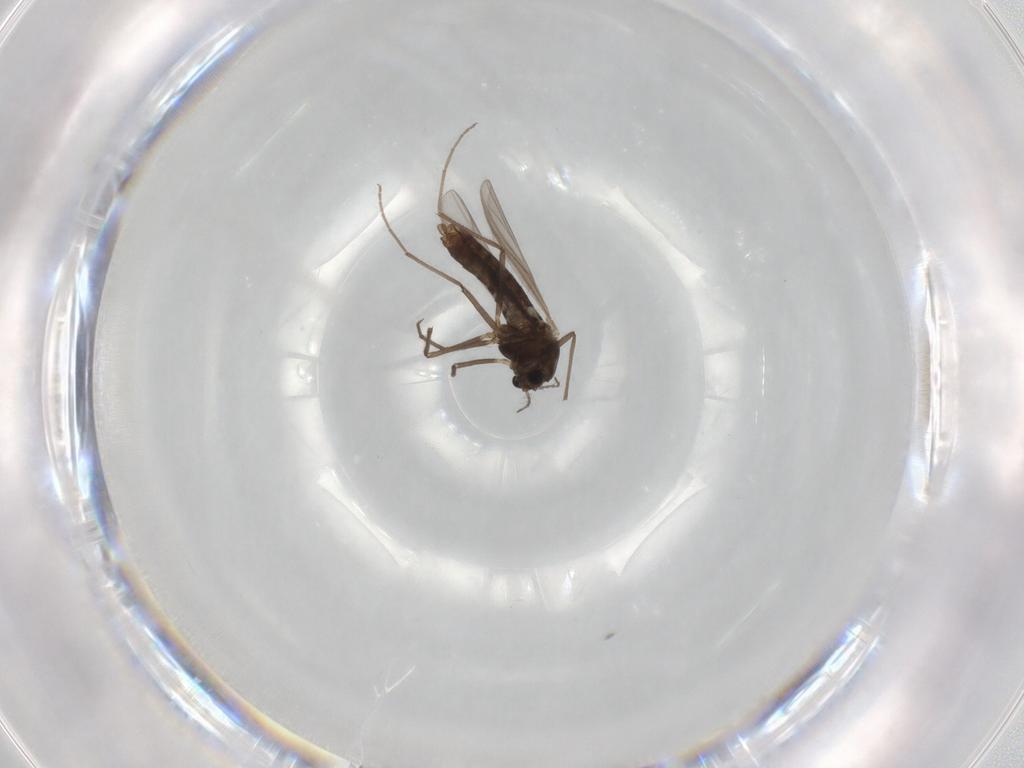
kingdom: Animalia
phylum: Arthropoda
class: Insecta
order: Diptera
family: Chironomidae
